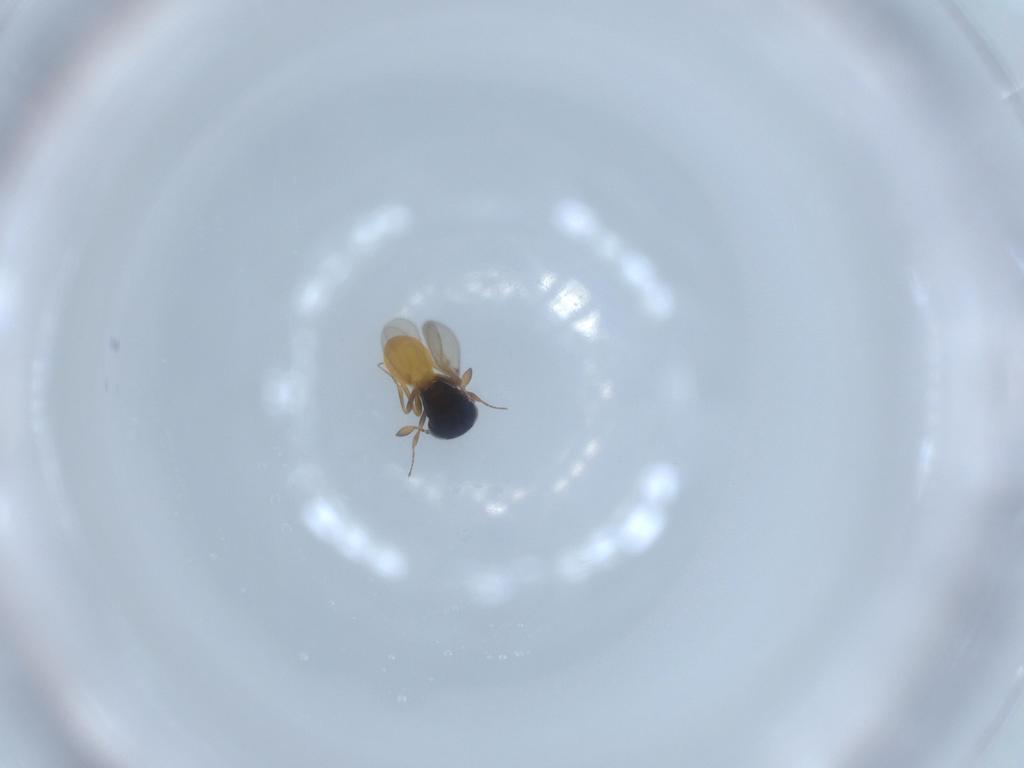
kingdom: Animalia
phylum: Arthropoda
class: Insecta
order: Hymenoptera
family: Scelionidae
